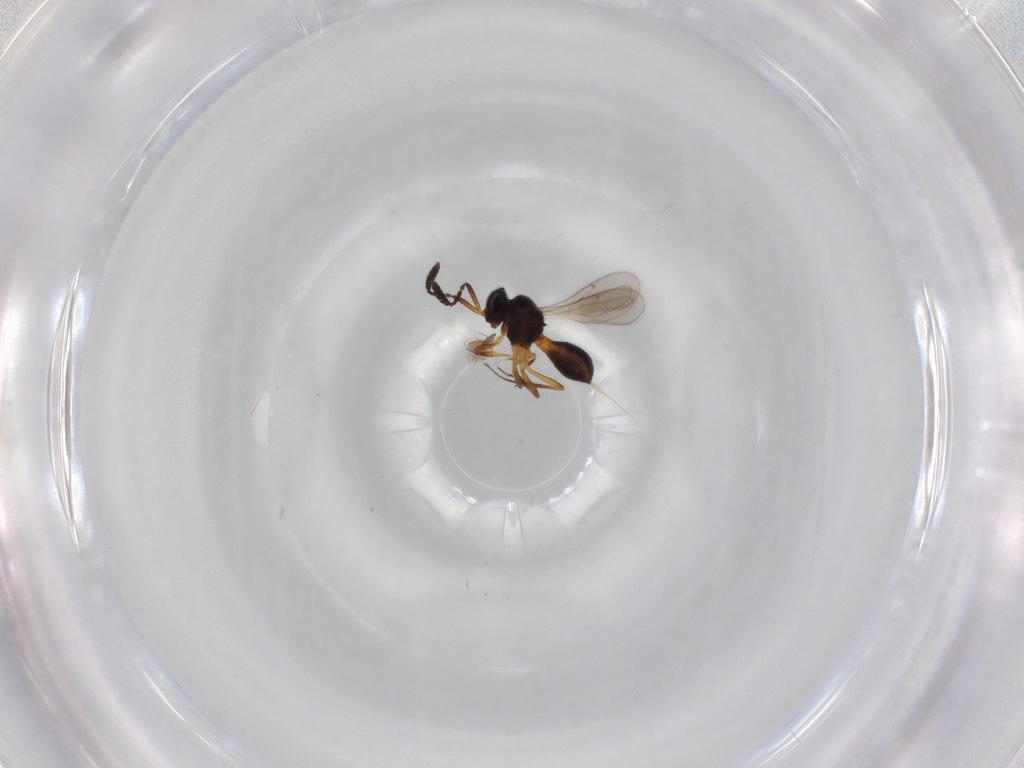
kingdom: Animalia
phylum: Arthropoda
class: Insecta
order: Hymenoptera
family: Scelionidae
